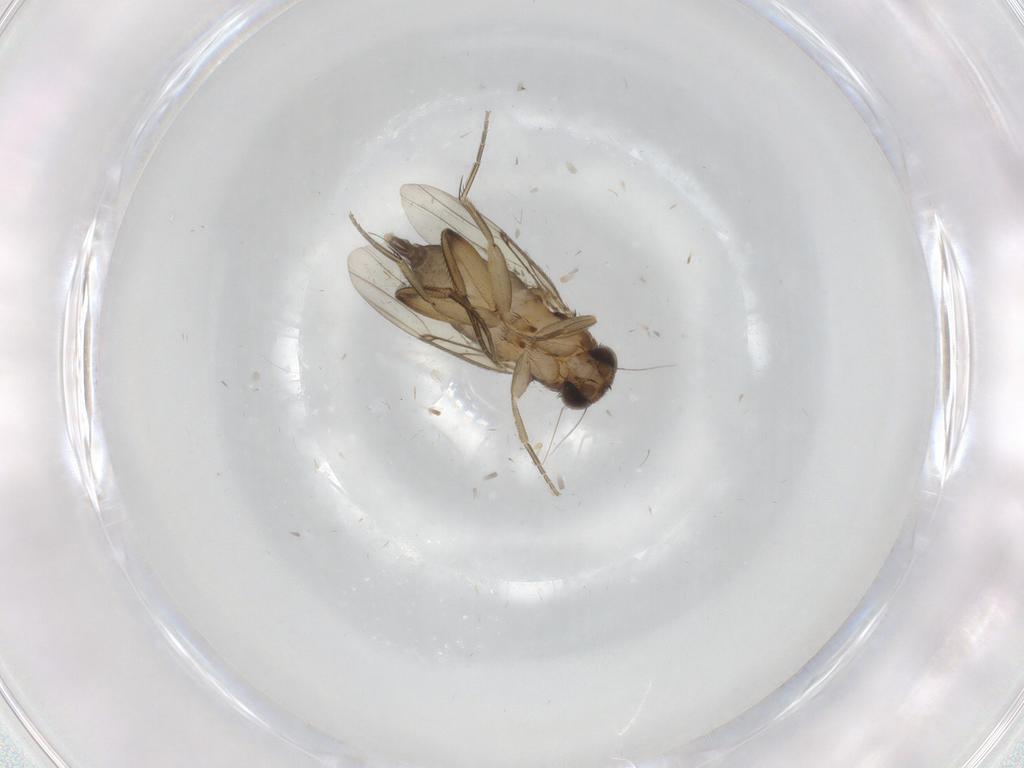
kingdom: Animalia
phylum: Arthropoda
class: Insecta
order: Diptera
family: Phoridae
